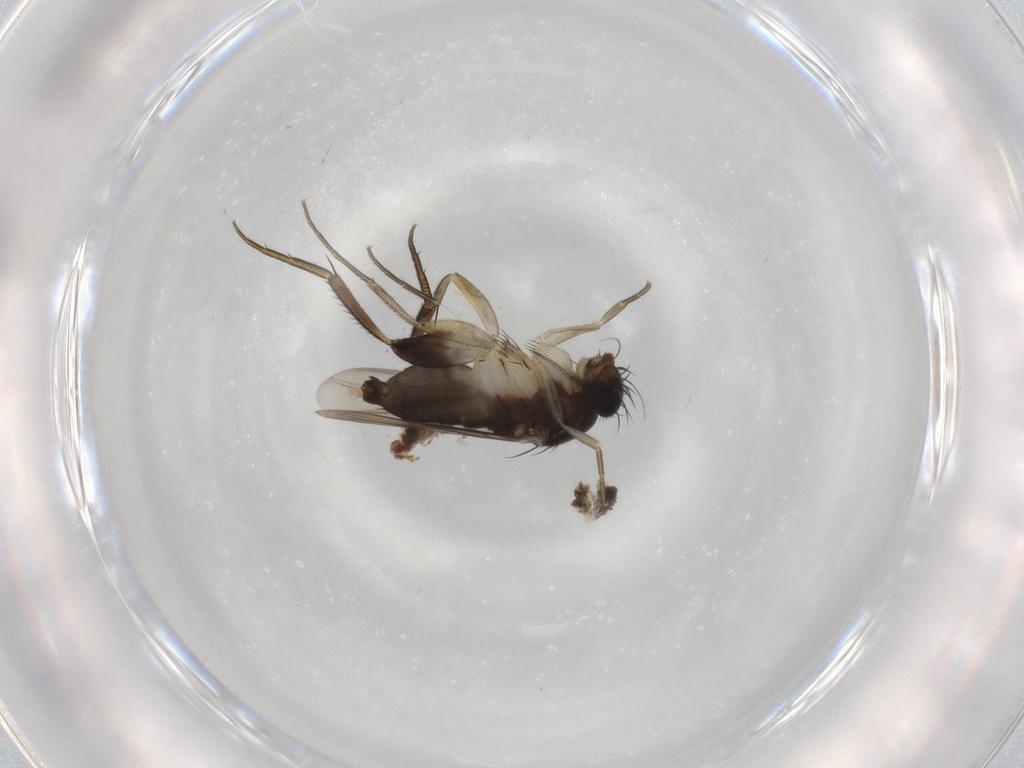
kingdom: Animalia
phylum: Arthropoda
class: Insecta
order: Diptera
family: Phoridae
